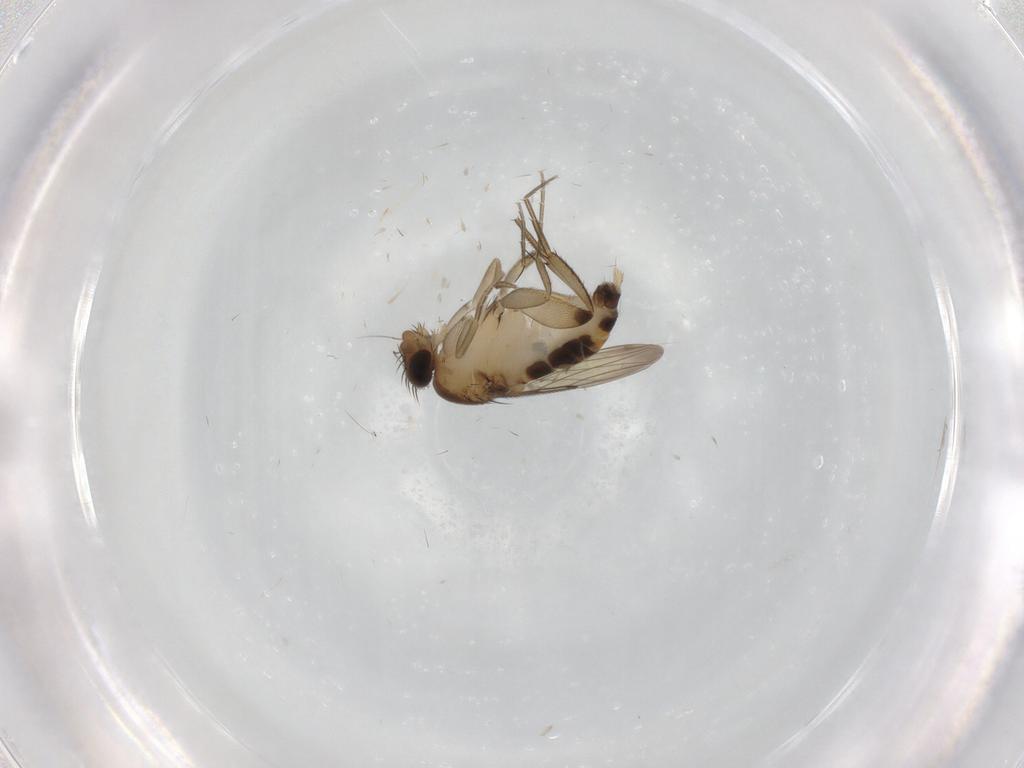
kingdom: Animalia
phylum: Arthropoda
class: Insecta
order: Diptera
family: Phoridae
